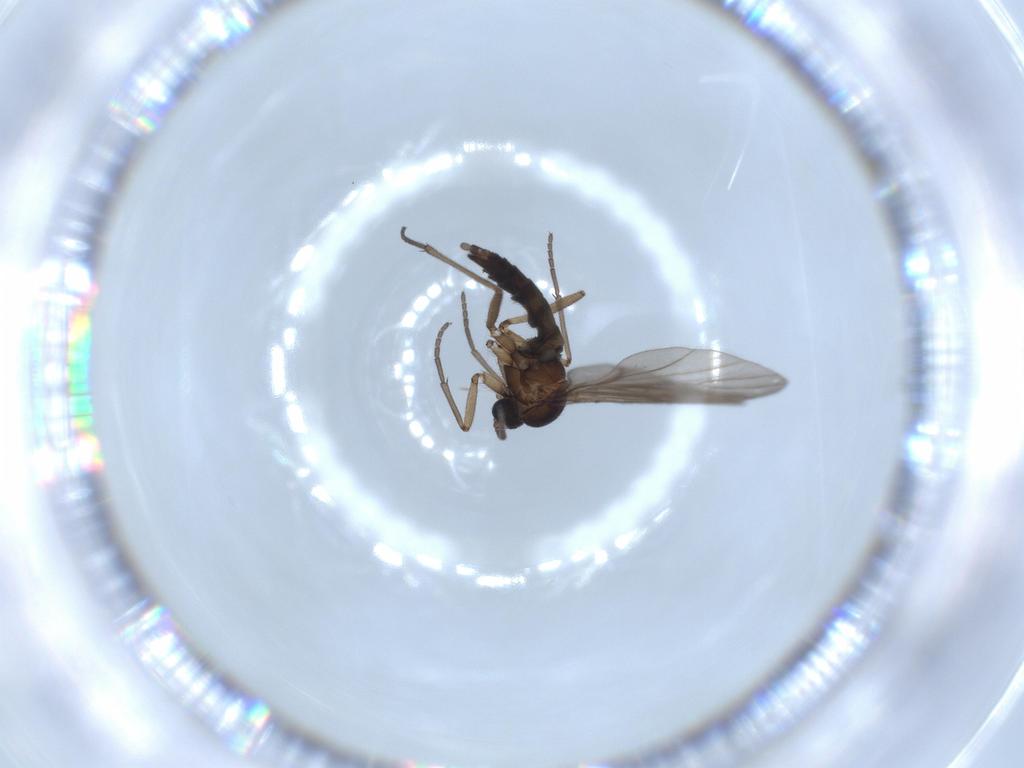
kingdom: Animalia
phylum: Arthropoda
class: Insecta
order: Diptera
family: Sciaridae
